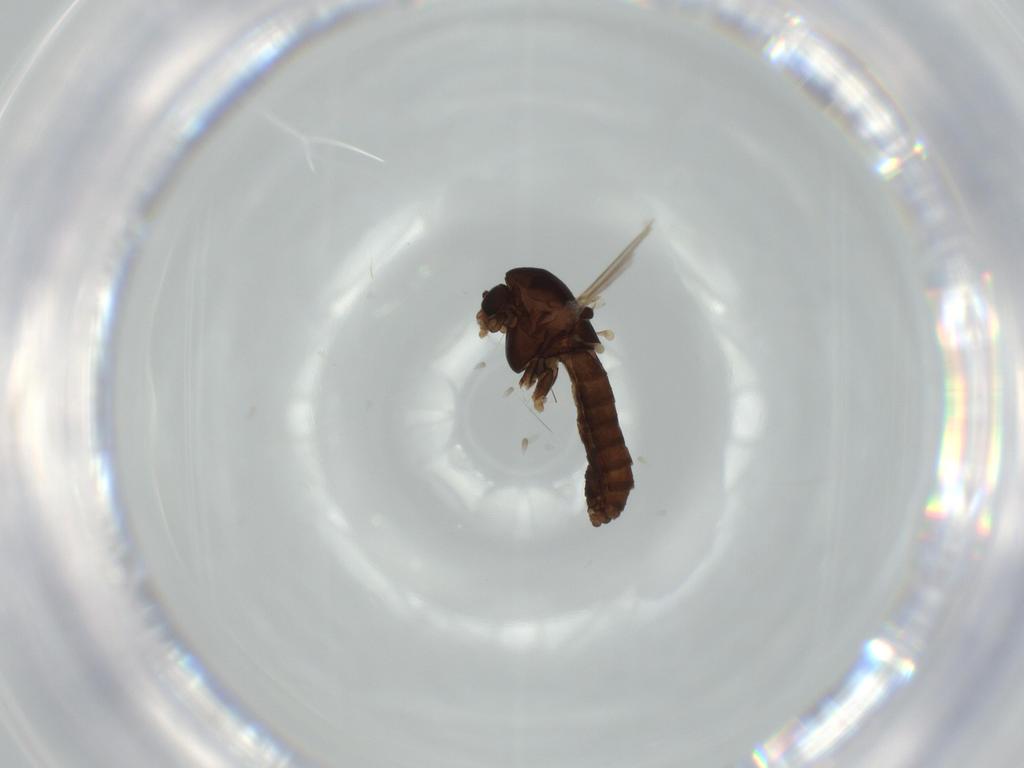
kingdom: Animalia
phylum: Arthropoda
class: Insecta
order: Diptera
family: Chironomidae
